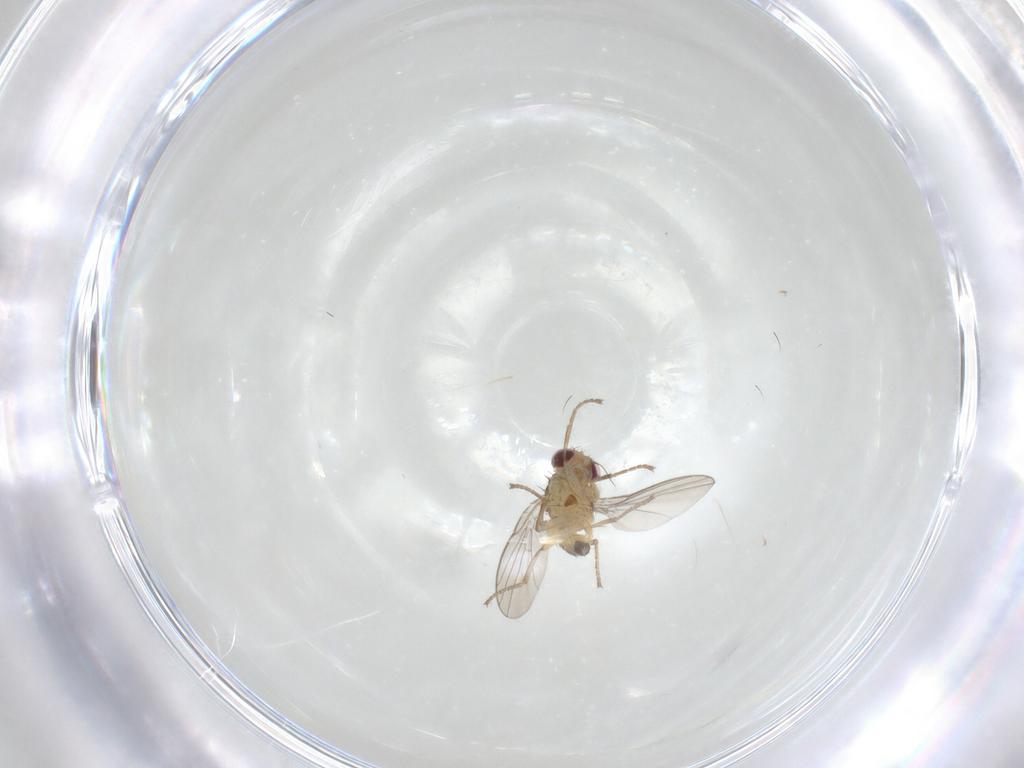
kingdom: Animalia
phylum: Arthropoda
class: Insecta
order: Diptera
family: Agromyzidae
